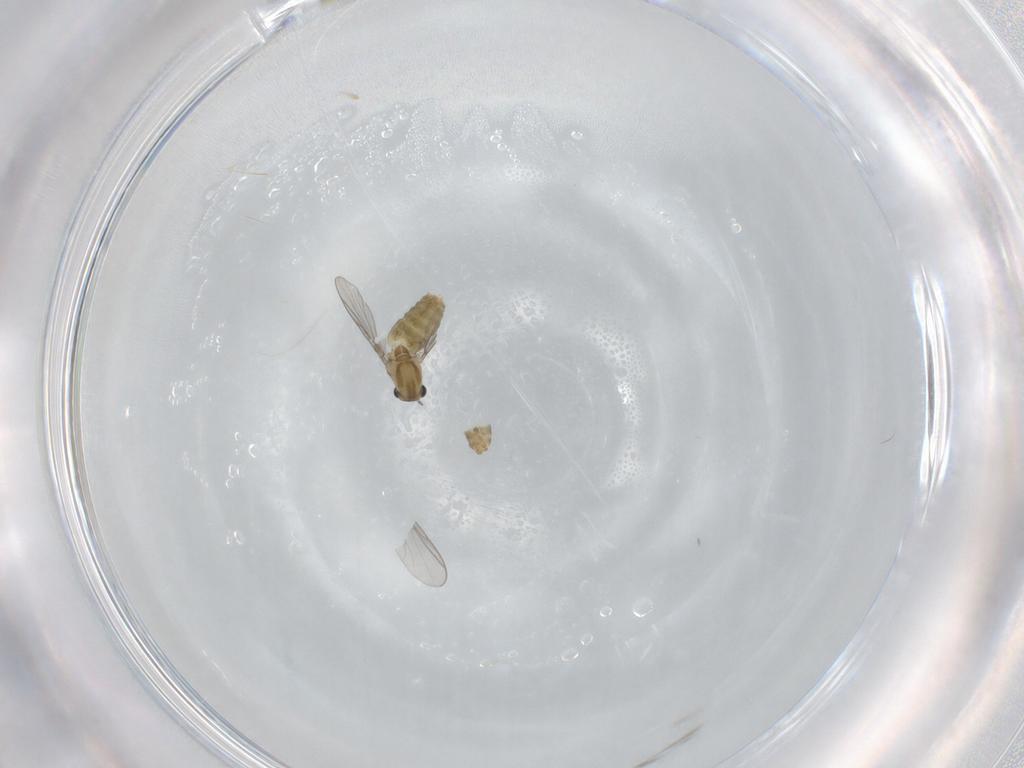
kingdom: Animalia
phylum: Arthropoda
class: Insecta
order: Diptera
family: Chironomidae
